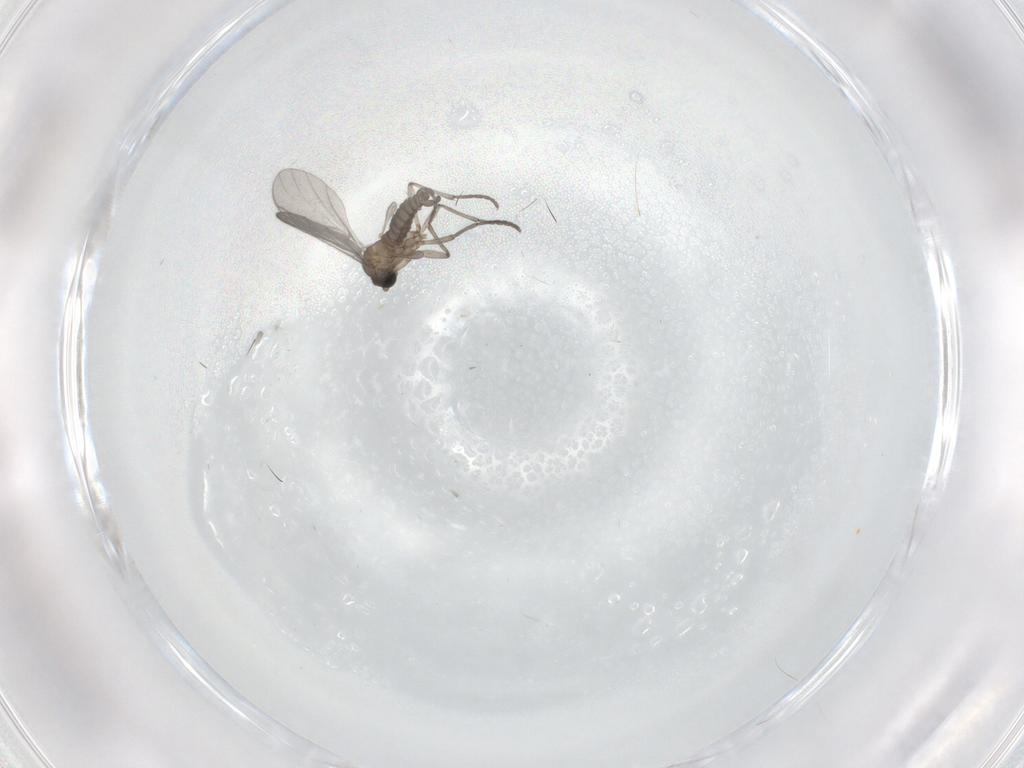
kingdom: Animalia
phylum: Arthropoda
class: Insecta
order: Diptera
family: Sciaridae
